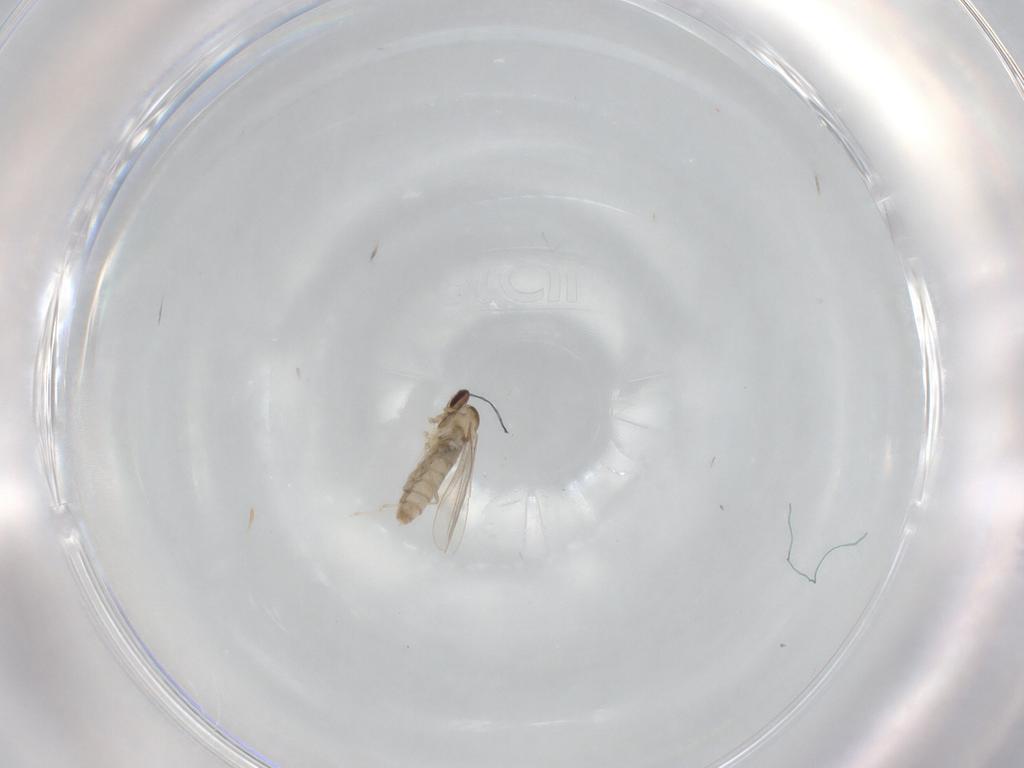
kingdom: Animalia
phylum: Arthropoda
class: Insecta
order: Diptera
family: Cecidomyiidae
